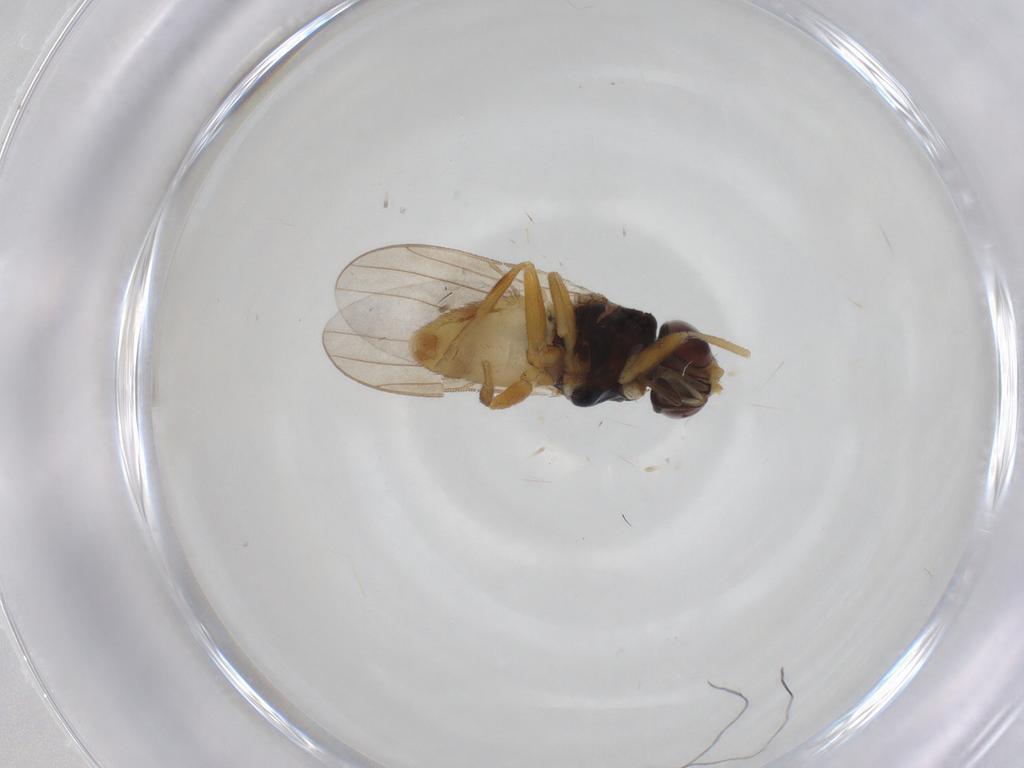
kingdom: Animalia
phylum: Arthropoda
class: Insecta
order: Diptera
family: Chloropidae
